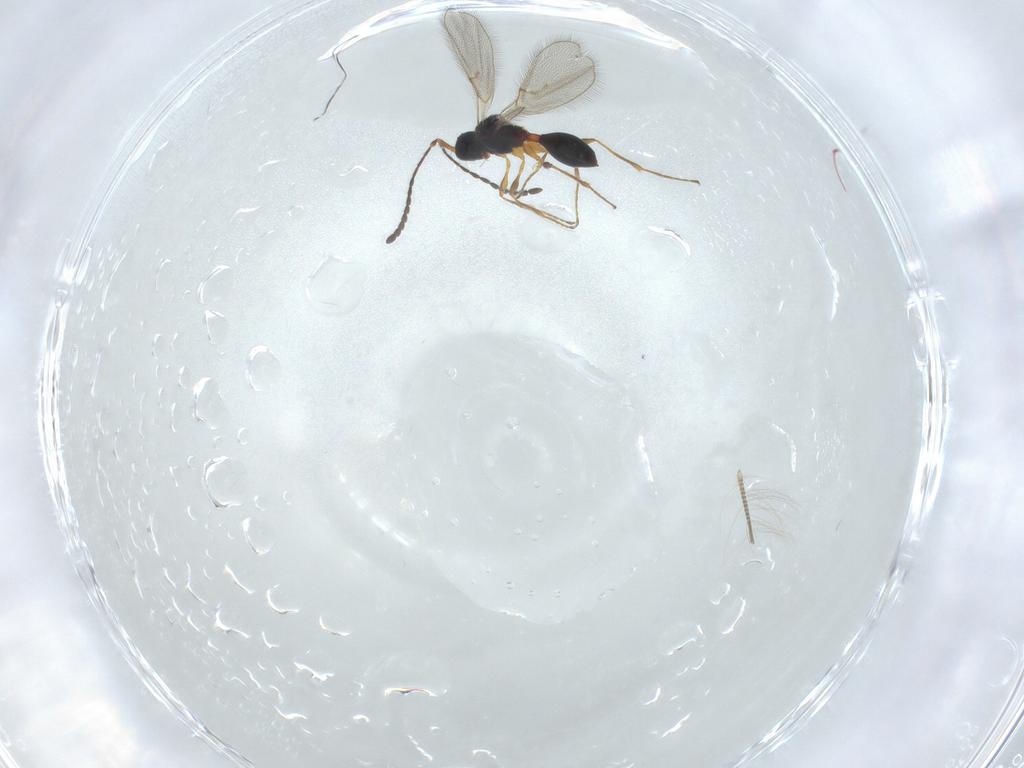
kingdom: Animalia
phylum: Arthropoda
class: Insecta
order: Hymenoptera
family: Diapriidae
